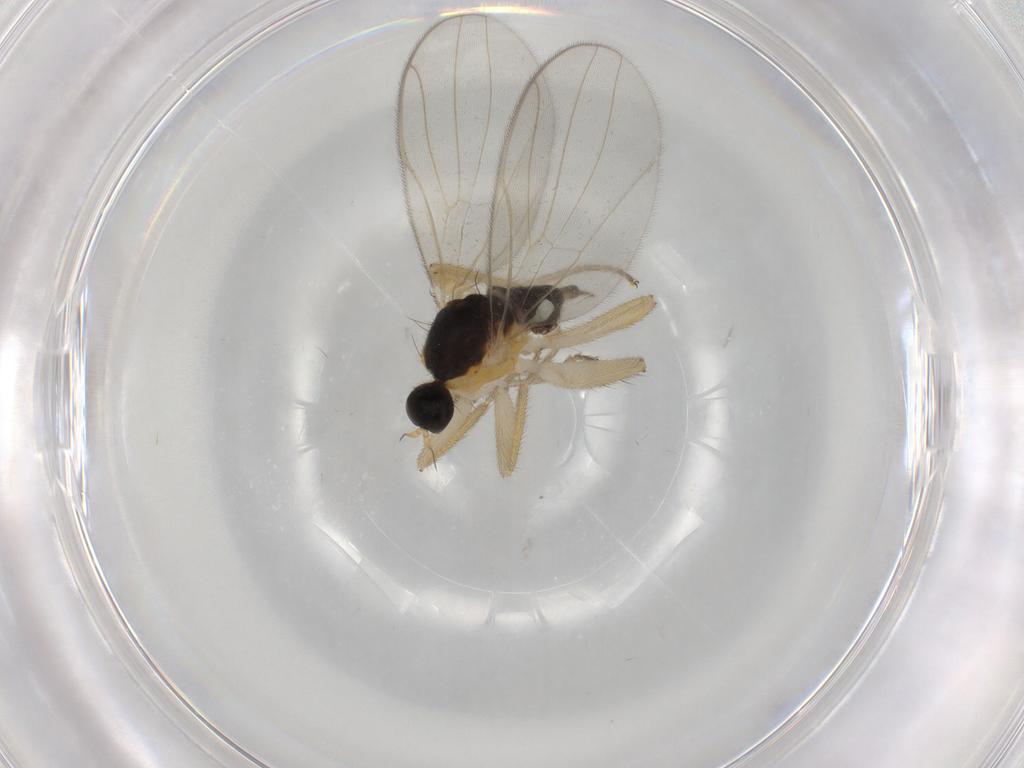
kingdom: Animalia
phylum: Arthropoda
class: Insecta
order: Diptera
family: Hybotidae
